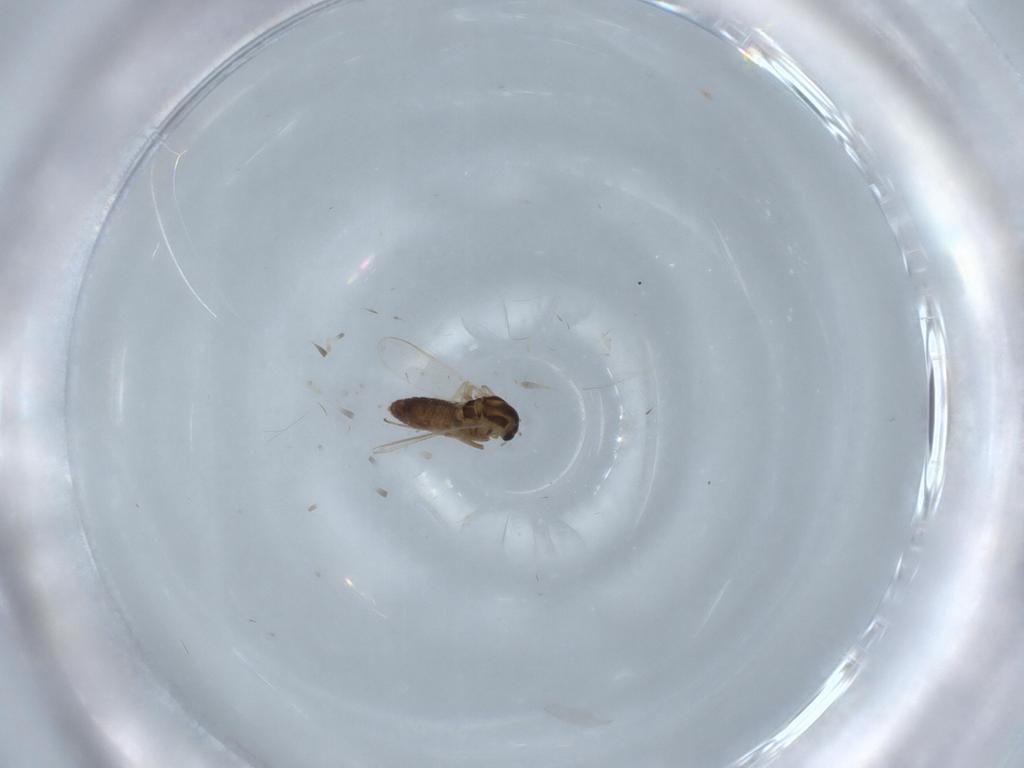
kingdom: Animalia
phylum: Arthropoda
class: Insecta
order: Diptera
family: Chironomidae
